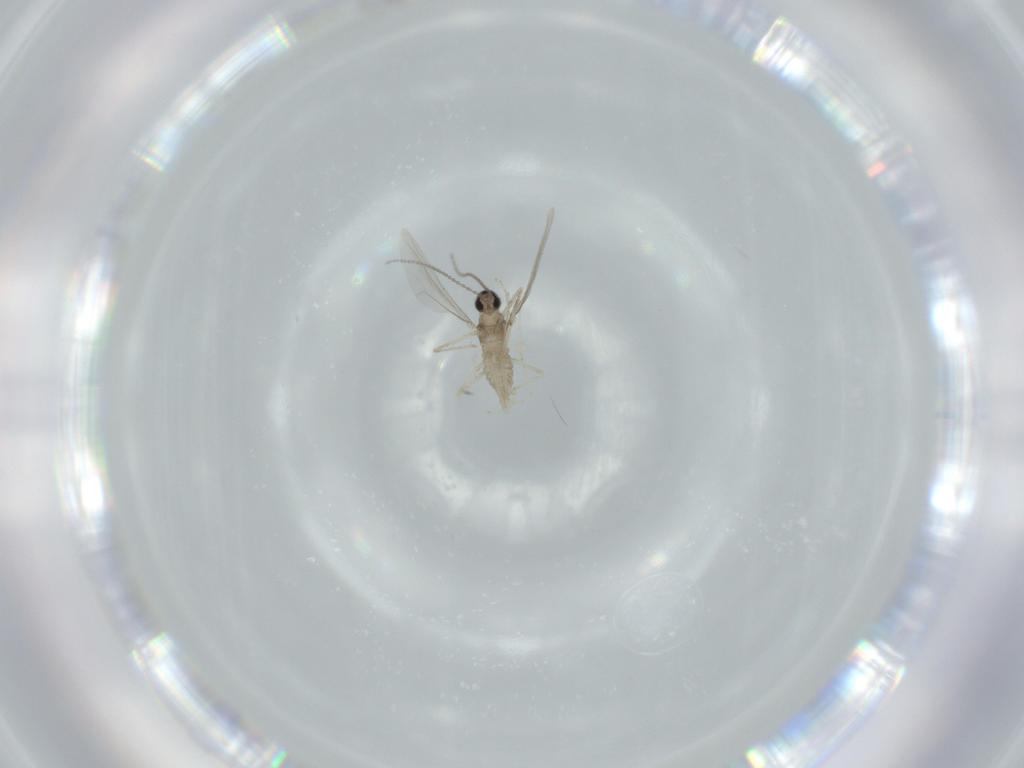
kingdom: Animalia
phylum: Arthropoda
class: Insecta
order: Diptera
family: Cecidomyiidae
